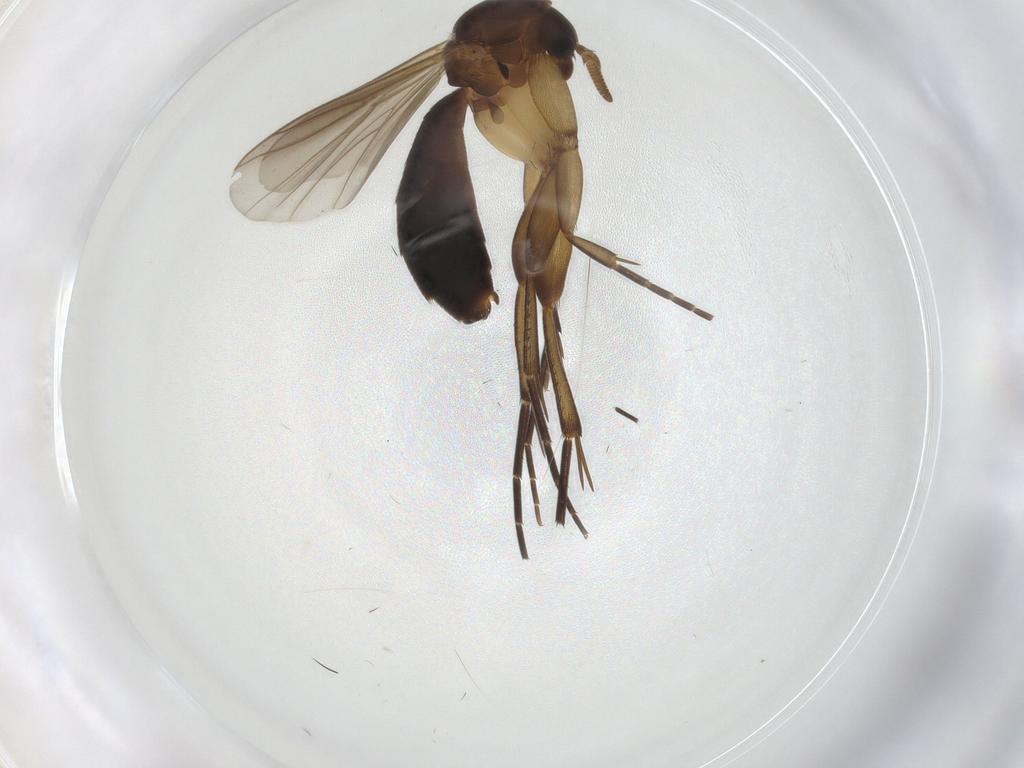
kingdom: Animalia
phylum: Arthropoda
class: Insecta
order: Diptera
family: Mycetophilidae
